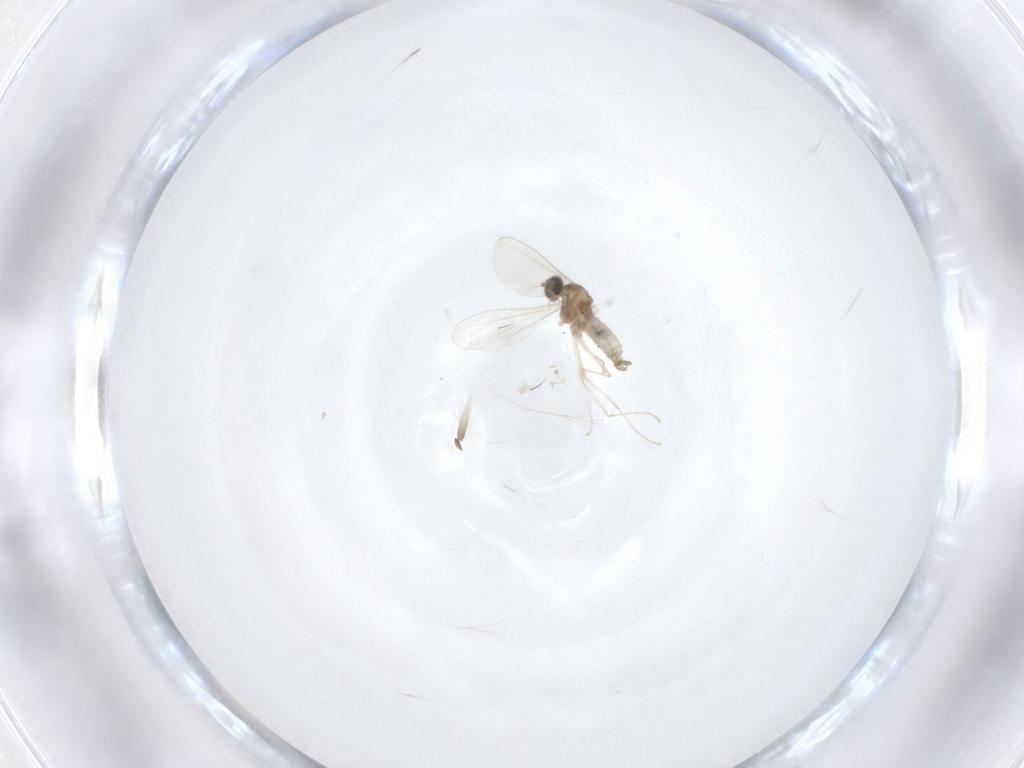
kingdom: Animalia
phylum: Arthropoda
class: Insecta
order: Diptera
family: Cecidomyiidae
